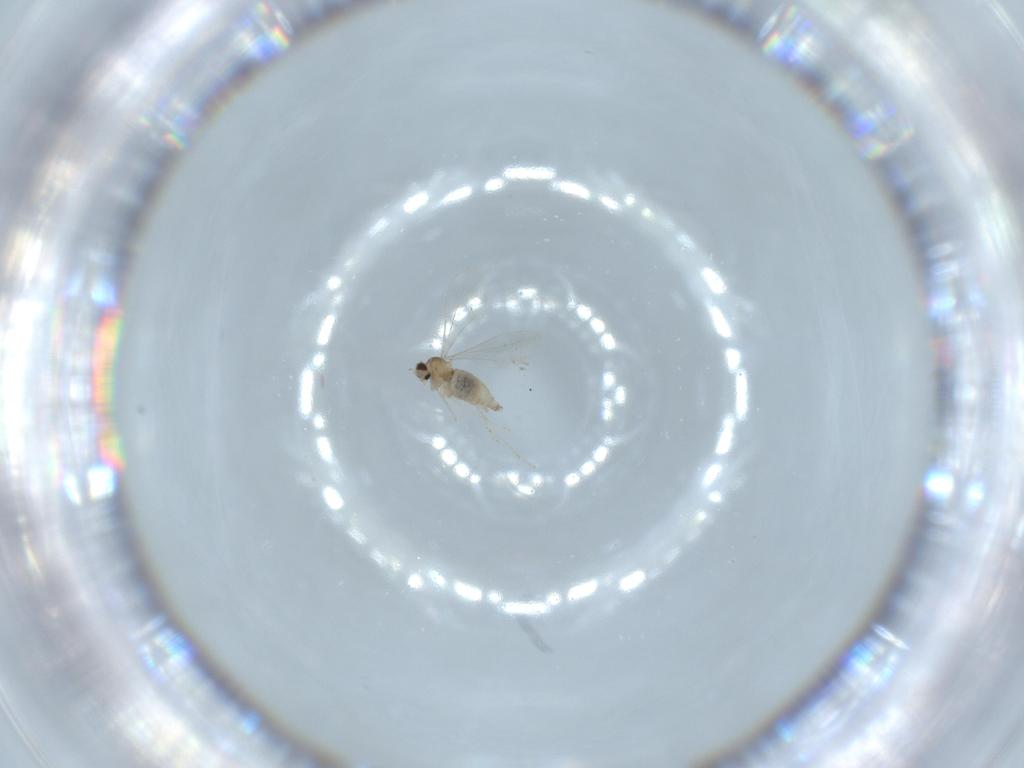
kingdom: Animalia
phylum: Arthropoda
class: Insecta
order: Diptera
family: Cecidomyiidae
